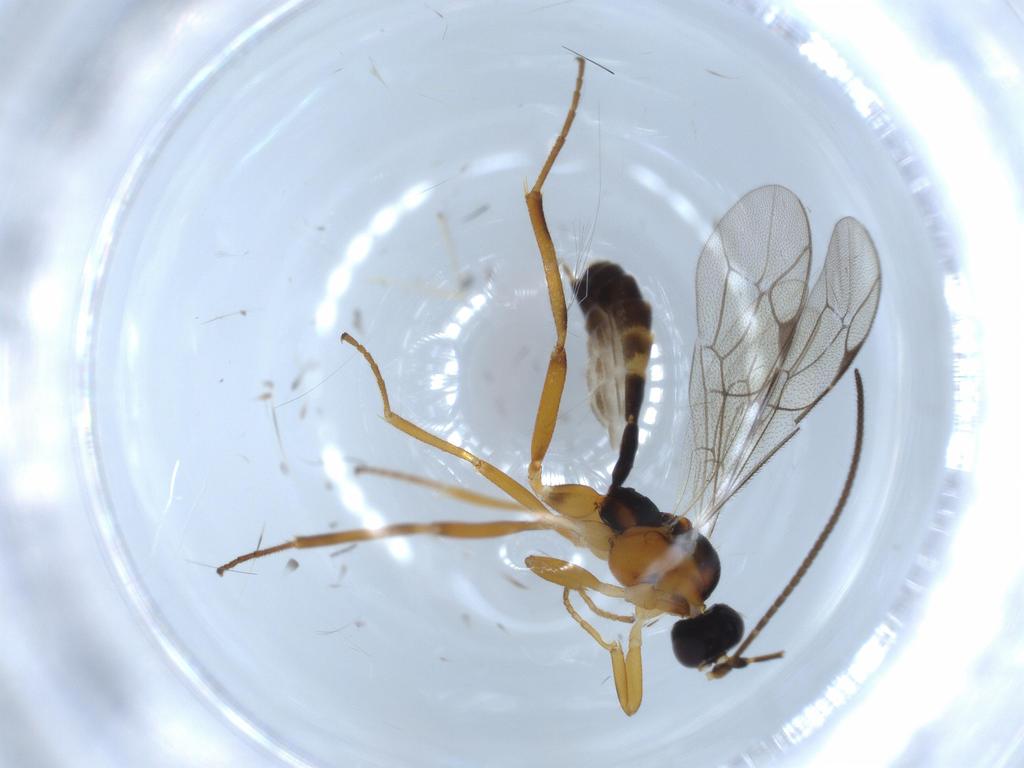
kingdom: Animalia
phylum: Arthropoda
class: Insecta
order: Hymenoptera
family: Ichneumonidae
